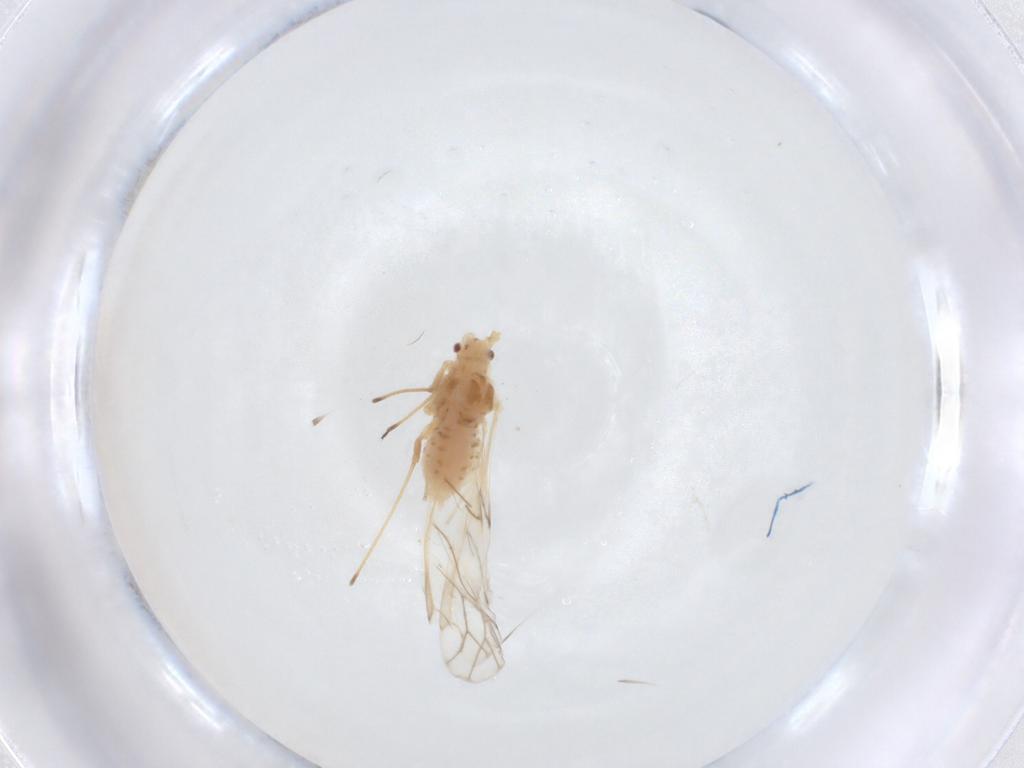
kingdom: Animalia
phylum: Arthropoda
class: Insecta
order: Hemiptera
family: Aphididae
